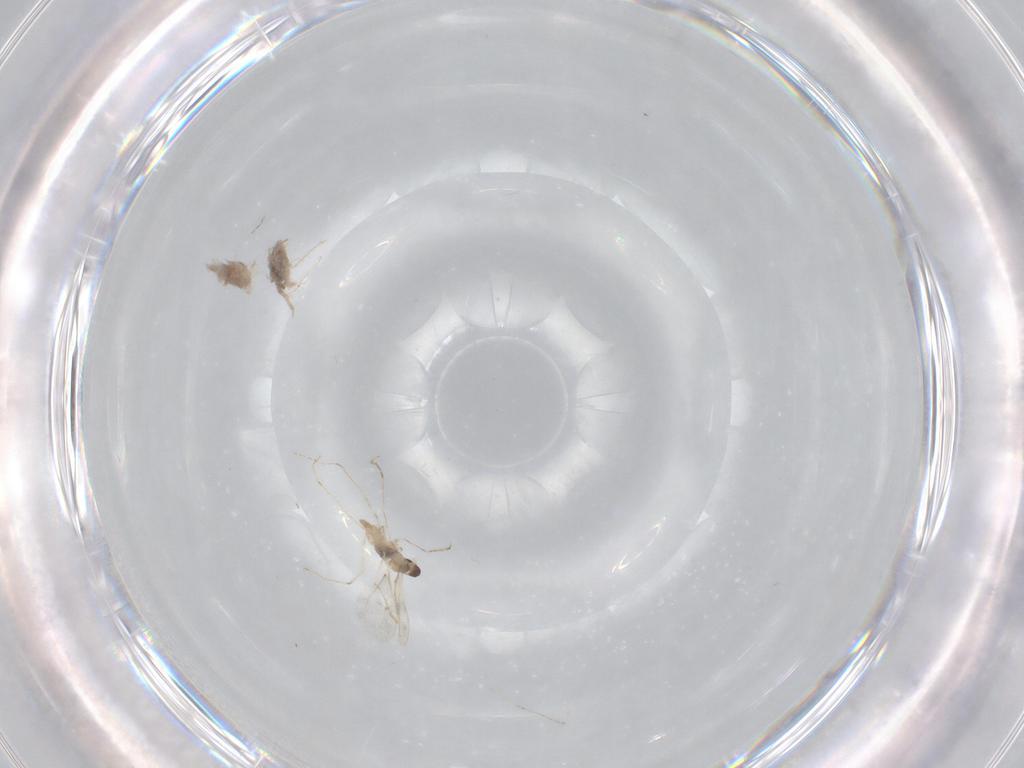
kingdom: Animalia
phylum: Arthropoda
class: Insecta
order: Diptera
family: Cecidomyiidae
